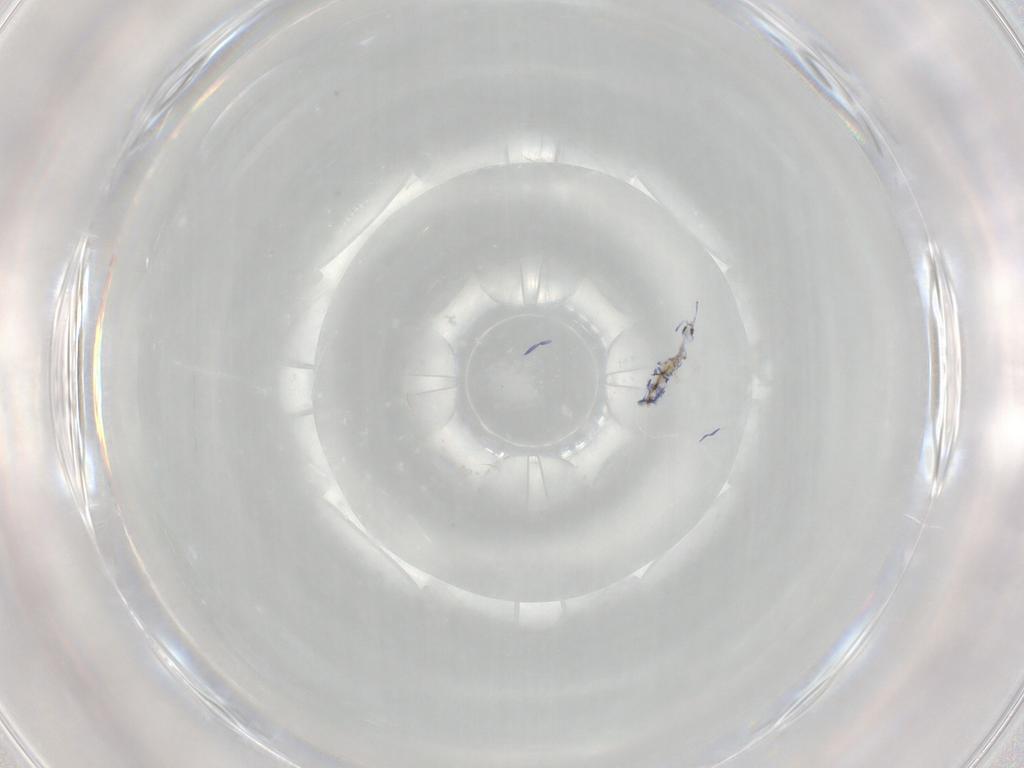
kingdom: Animalia
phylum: Arthropoda
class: Collembola
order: Entomobryomorpha
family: Entomobryidae
